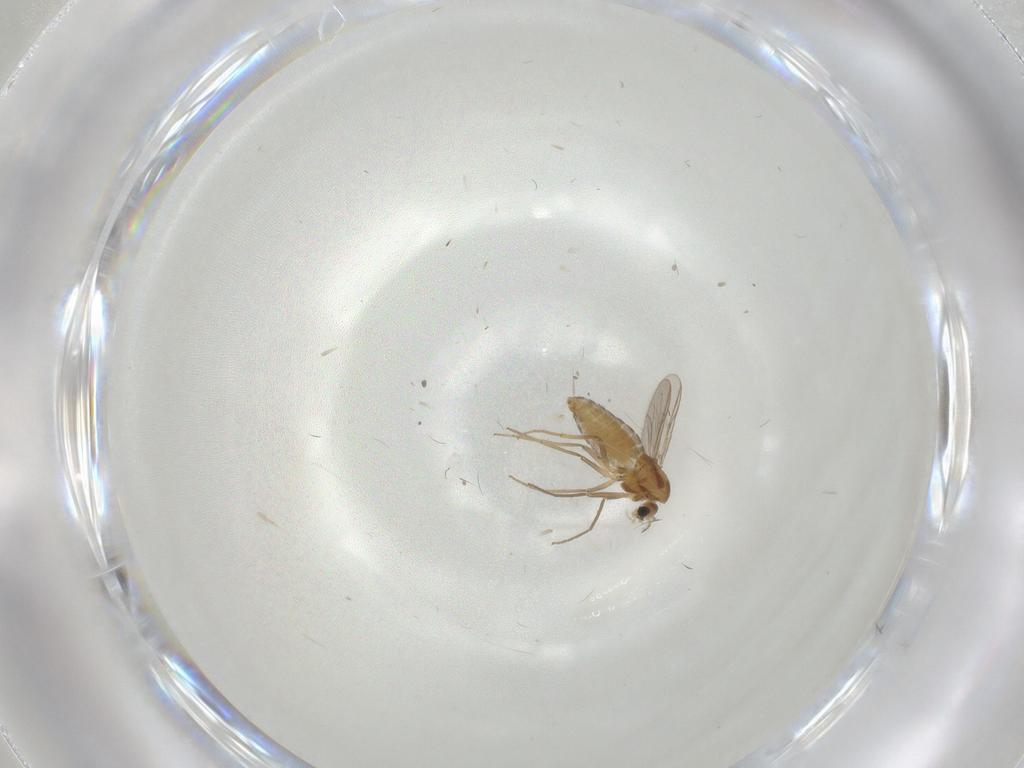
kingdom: Animalia
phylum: Arthropoda
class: Insecta
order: Diptera
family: Chironomidae
